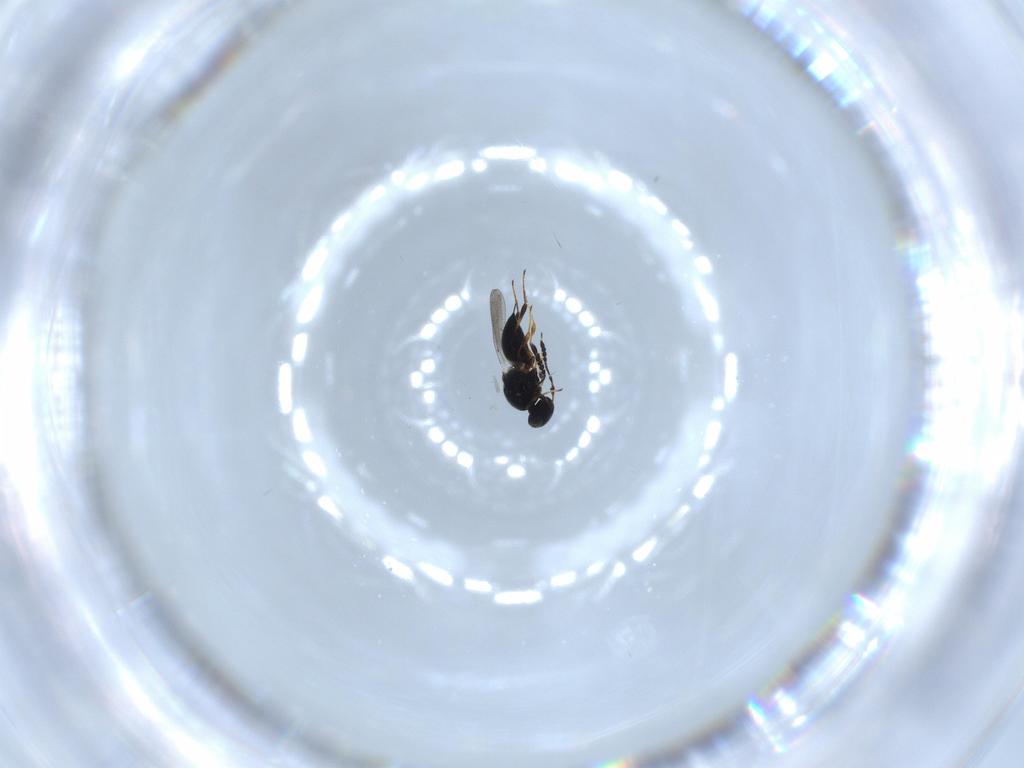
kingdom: Animalia
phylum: Arthropoda
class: Insecta
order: Hymenoptera
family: Platygastridae
